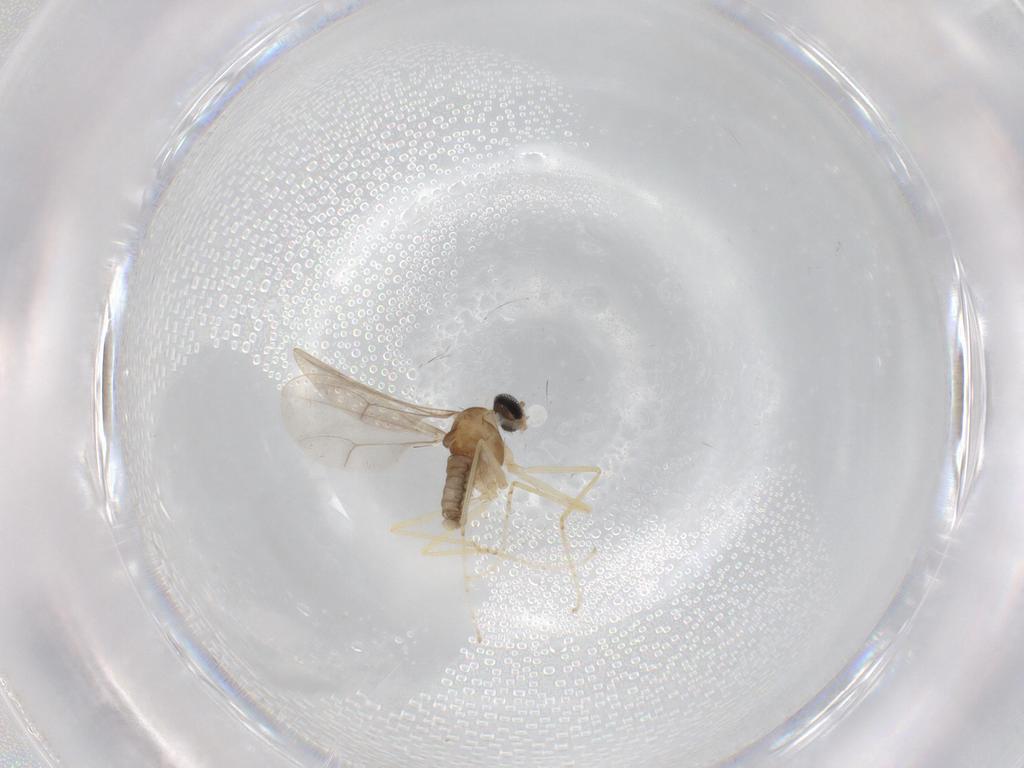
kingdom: Animalia
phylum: Arthropoda
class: Insecta
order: Diptera
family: Cecidomyiidae
